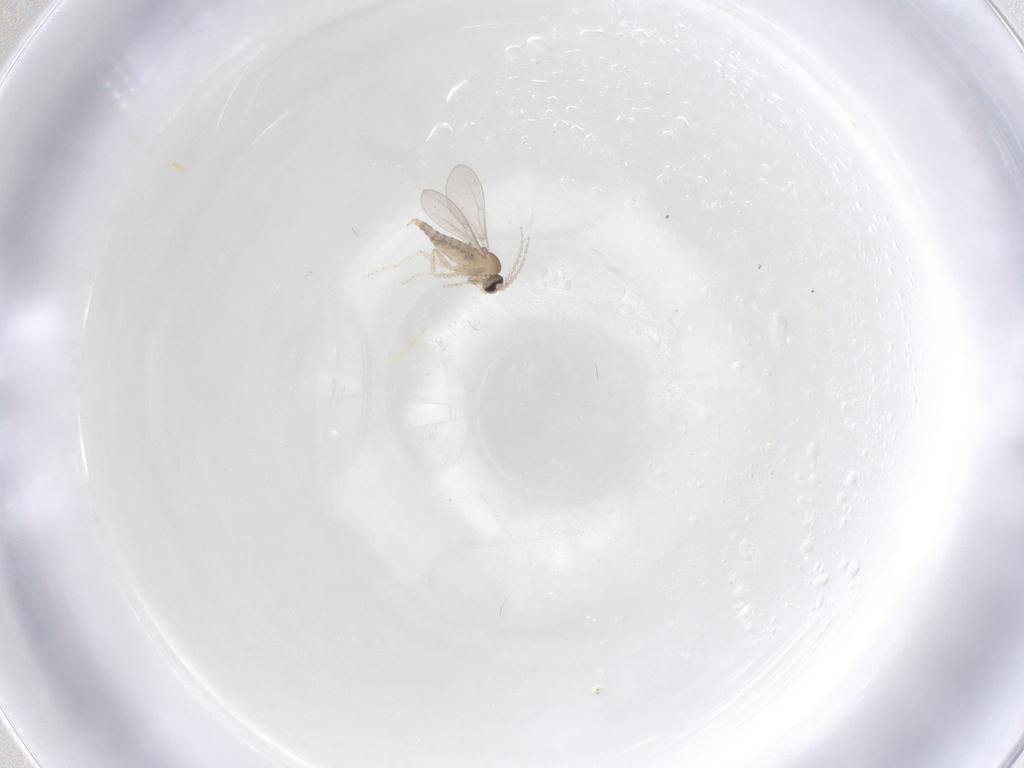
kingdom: Animalia
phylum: Arthropoda
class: Insecta
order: Diptera
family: Cecidomyiidae
